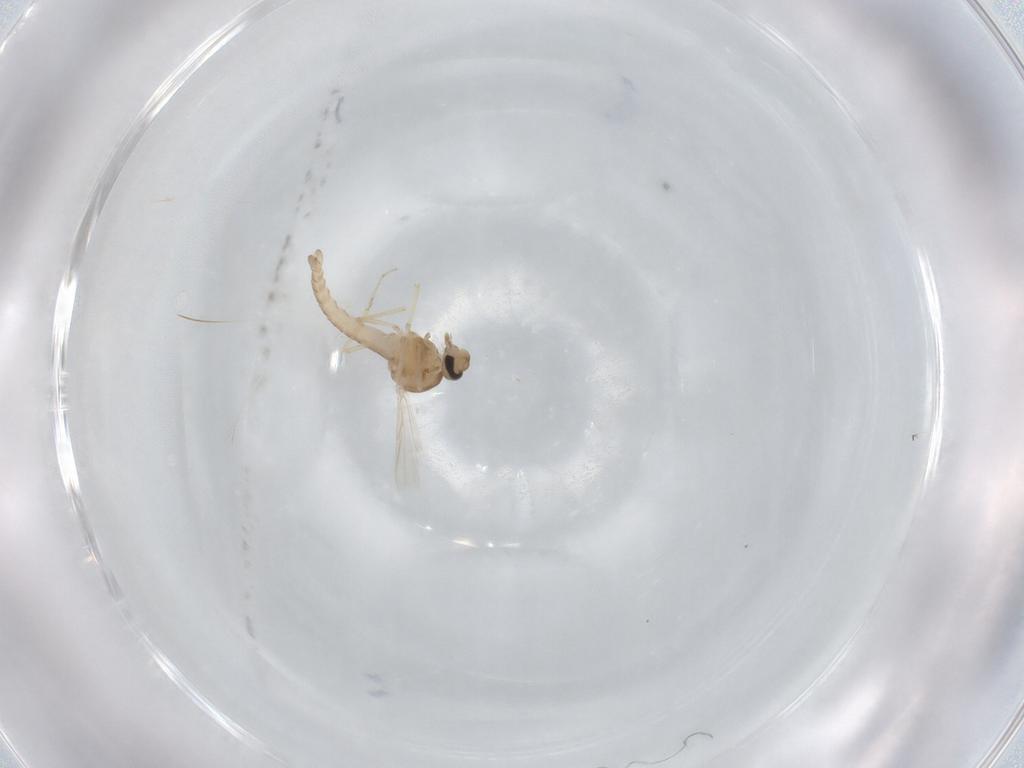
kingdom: Animalia
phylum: Arthropoda
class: Insecta
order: Diptera
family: Ceratopogonidae
